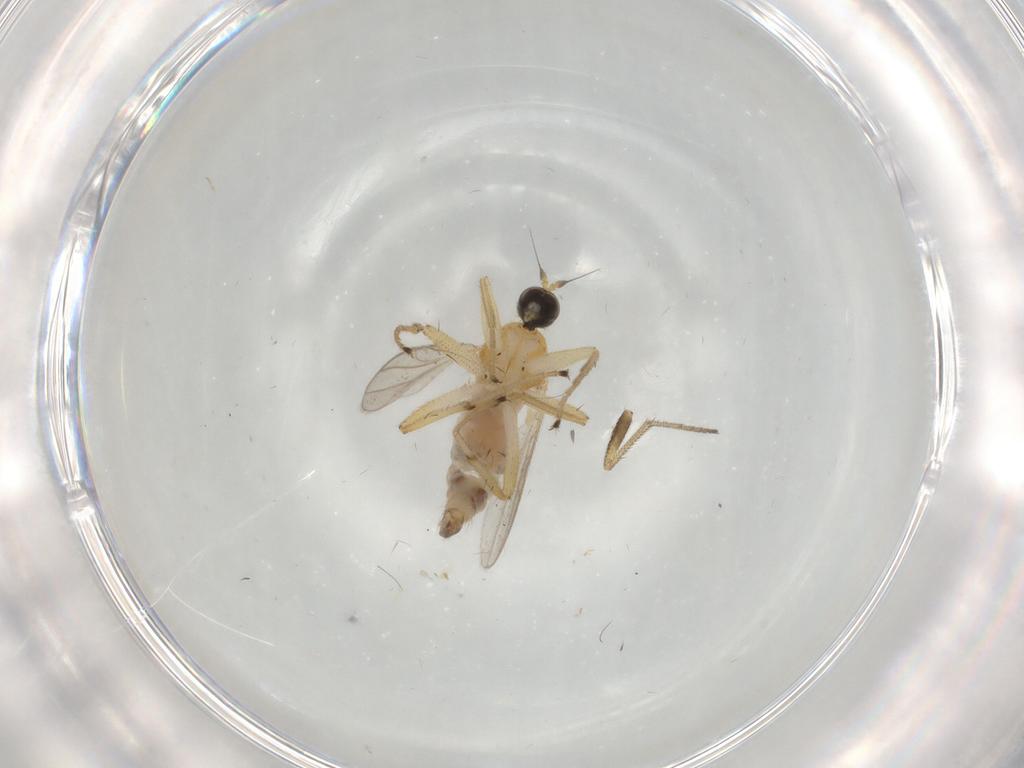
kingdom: Animalia
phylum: Arthropoda
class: Insecta
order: Diptera
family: Hybotidae
